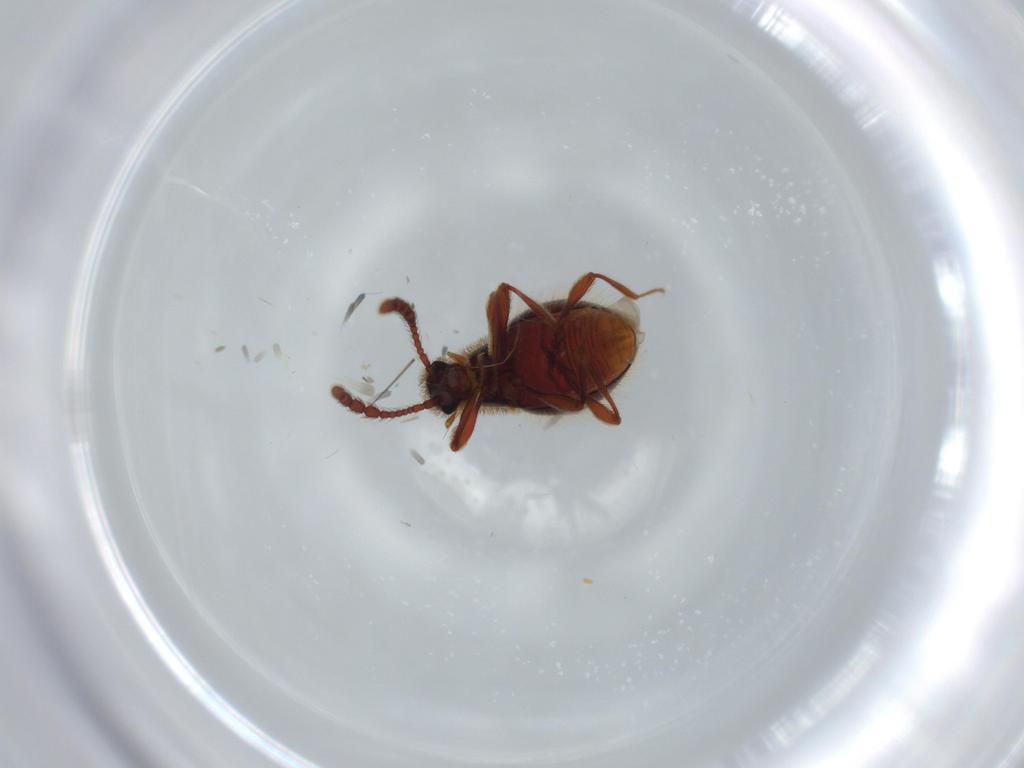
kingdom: Animalia
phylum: Arthropoda
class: Insecta
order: Coleoptera
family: Staphylinidae
